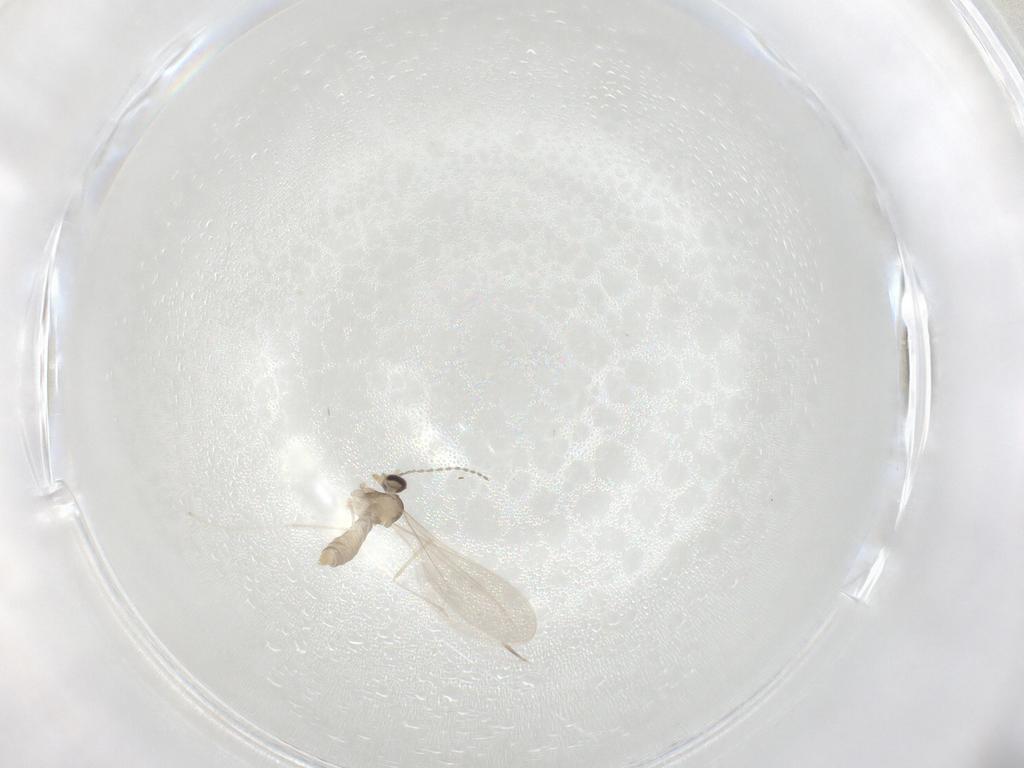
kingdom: Animalia
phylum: Arthropoda
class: Insecta
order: Diptera
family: Cecidomyiidae
